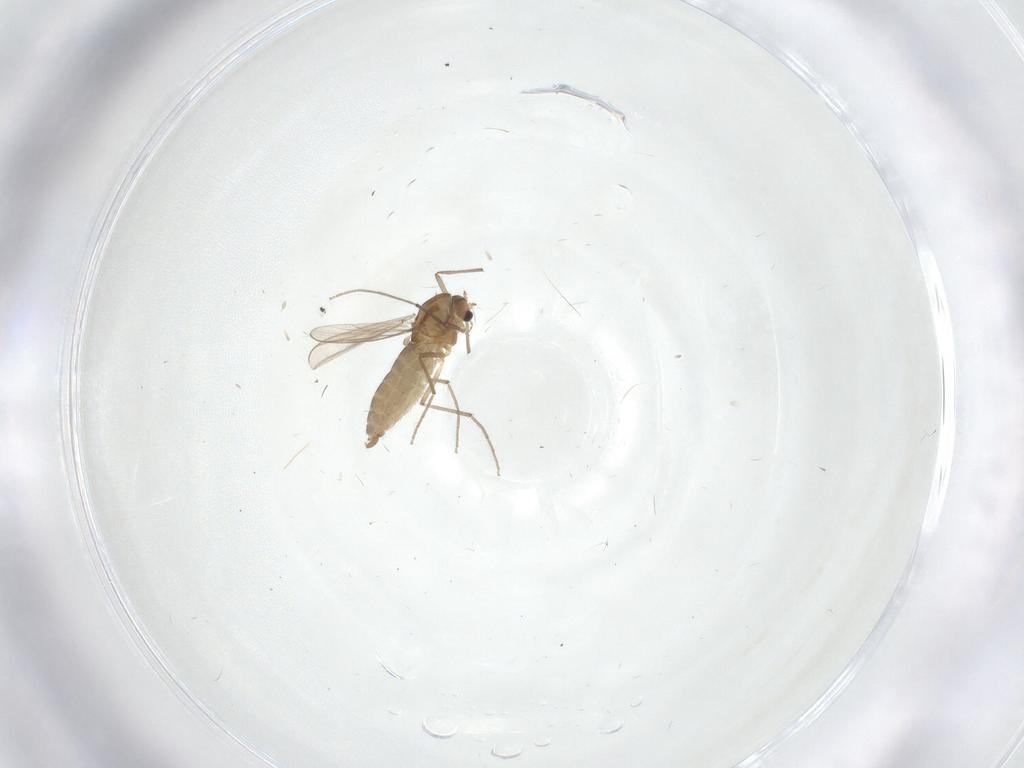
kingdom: Animalia
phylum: Arthropoda
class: Insecta
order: Diptera
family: Chironomidae
